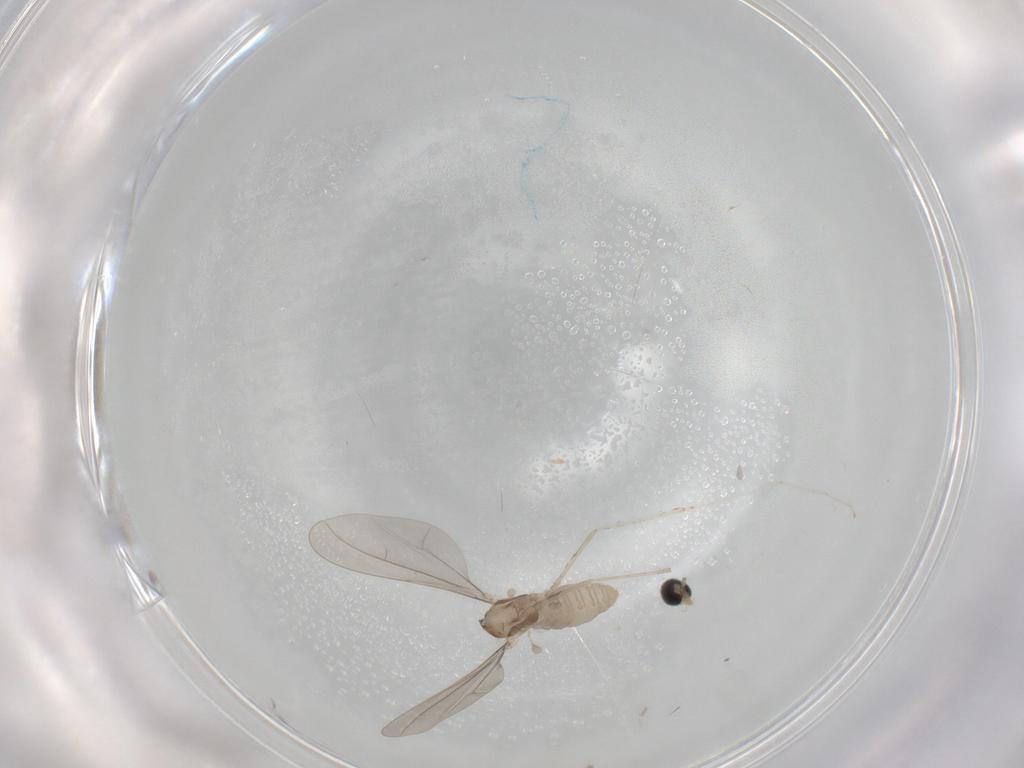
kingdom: Animalia
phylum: Arthropoda
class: Insecta
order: Diptera
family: Cecidomyiidae
